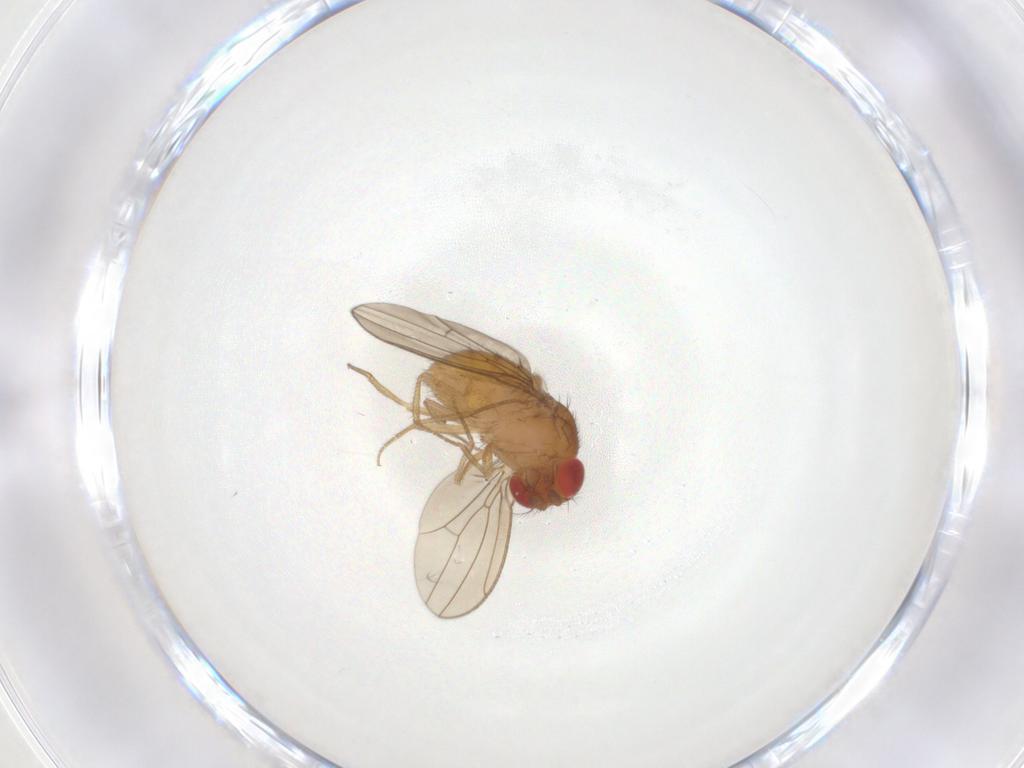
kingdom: Animalia
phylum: Arthropoda
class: Insecta
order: Diptera
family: Drosophilidae
